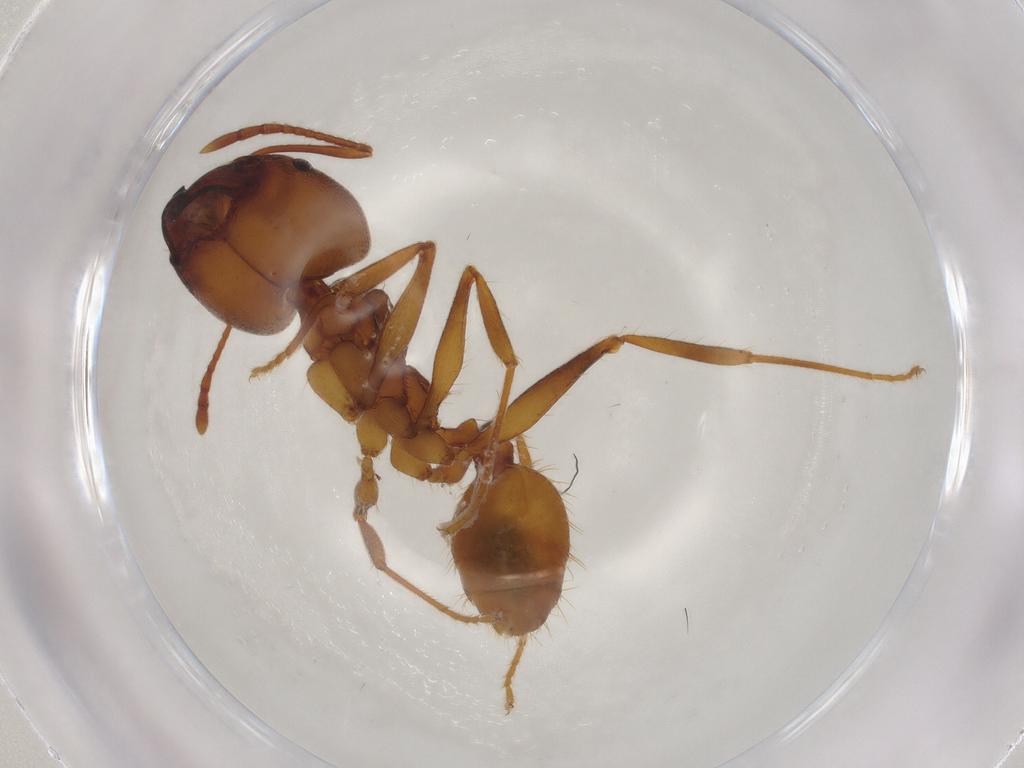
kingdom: Animalia
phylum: Arthropoda
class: Insecta
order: Hymenoptera
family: Formicidae
